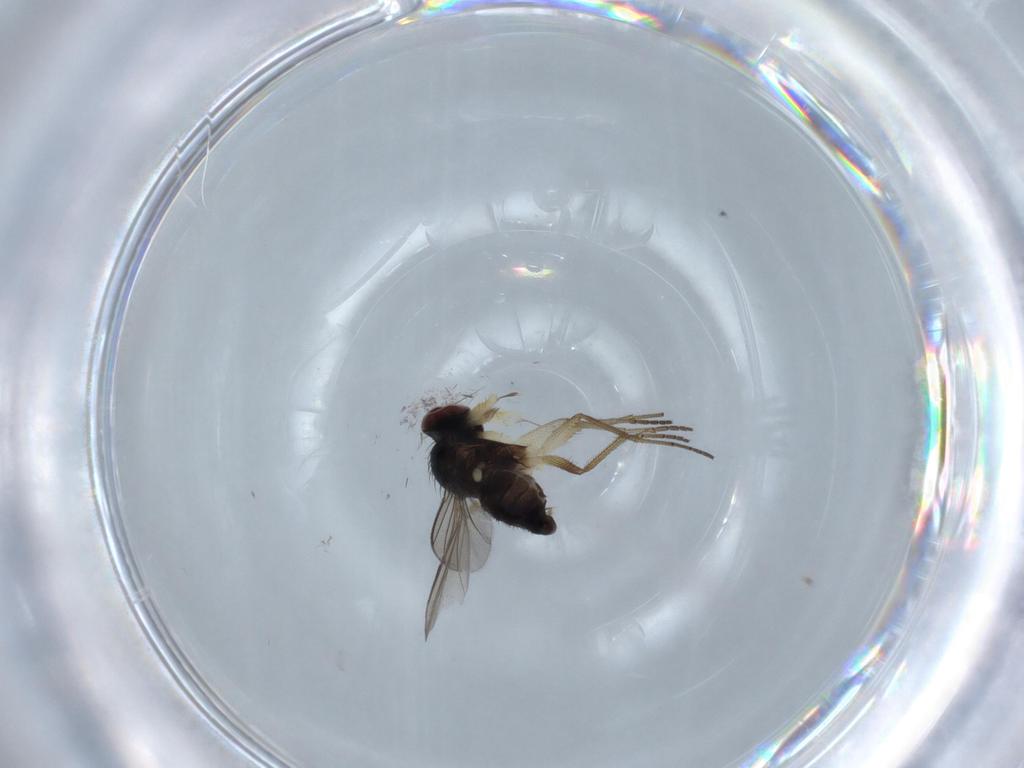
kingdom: Animalia
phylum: Arthropoda
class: Insecta
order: Diptera
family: Dolichopodidae
